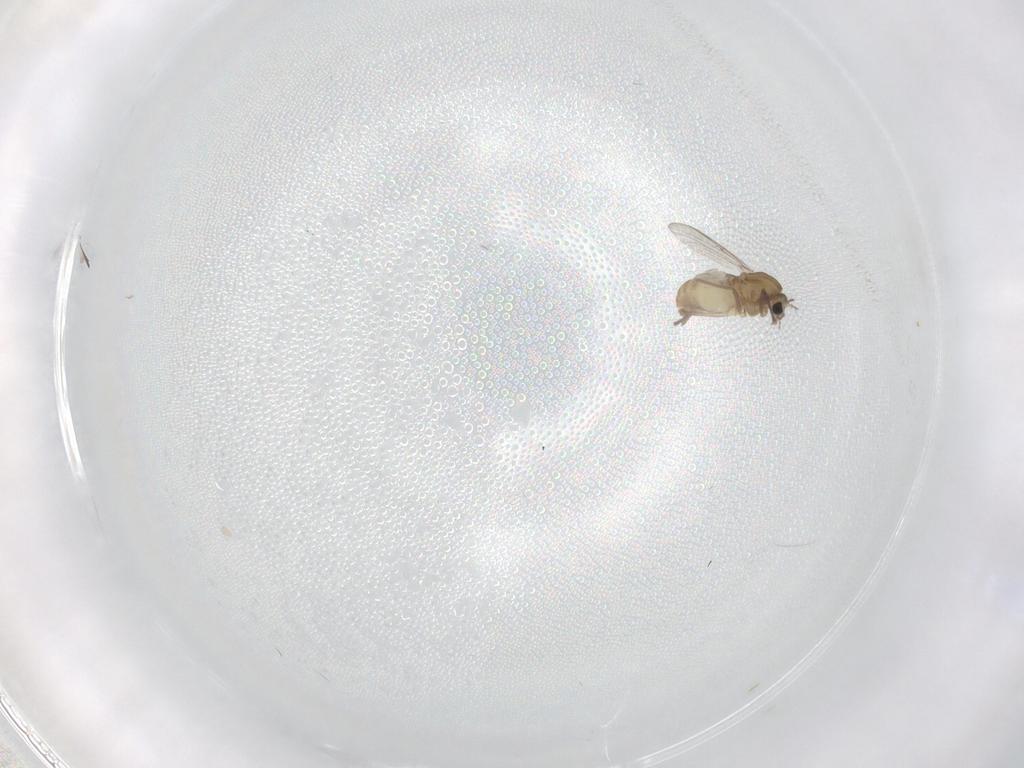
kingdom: Animalia
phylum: Arthropoda
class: Insecta
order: Diptera
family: Chironomidae
